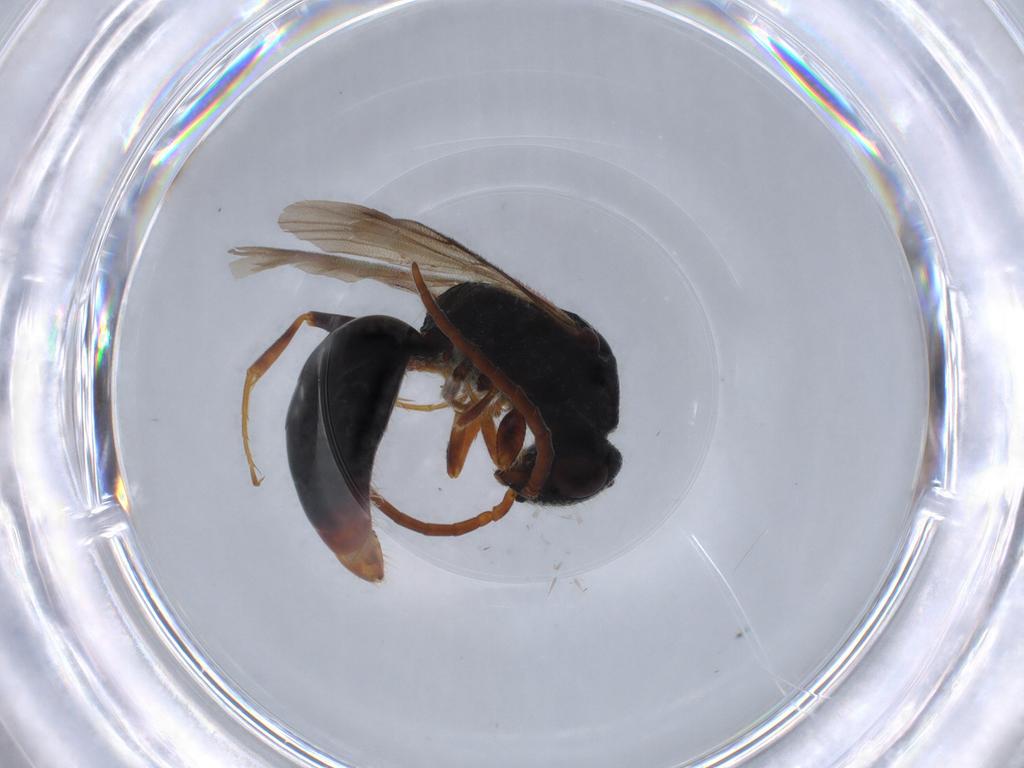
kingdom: Animalia
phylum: Arthropoda
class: Insecta
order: Hymenoptera
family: Bethylidae
